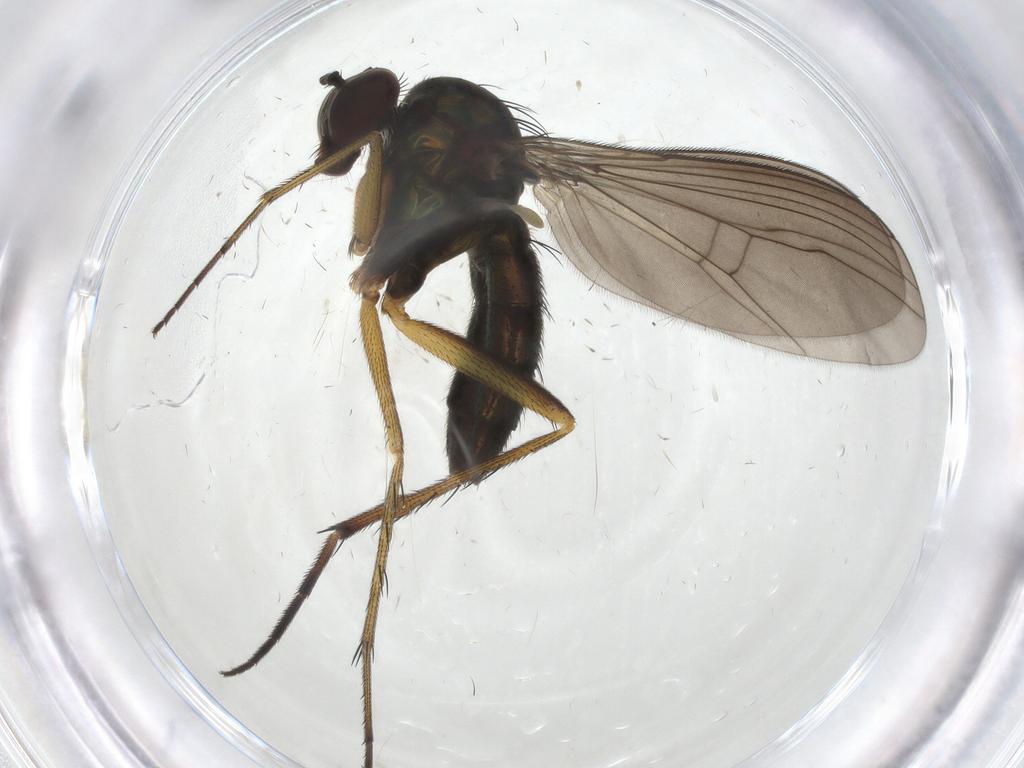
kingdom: Animalia
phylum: Arthropoda
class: Insecta
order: Diptera
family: Dolichopodidae
